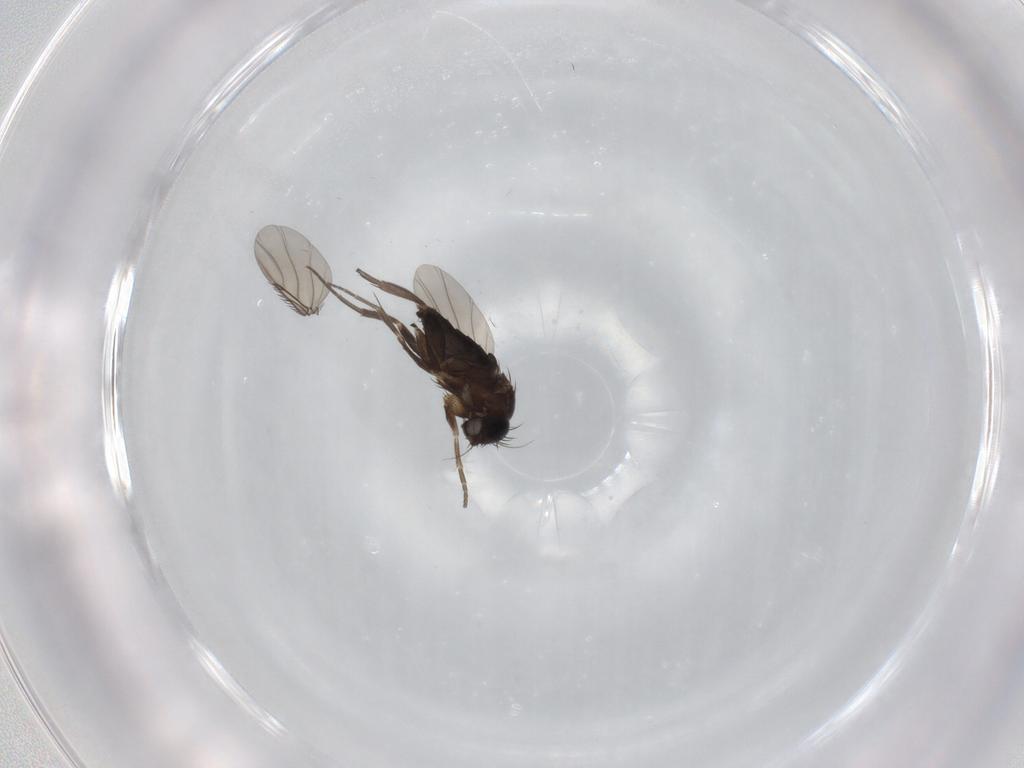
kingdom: Animalia
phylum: Arthropoda
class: Insecta
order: Diptera
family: Phoridae
